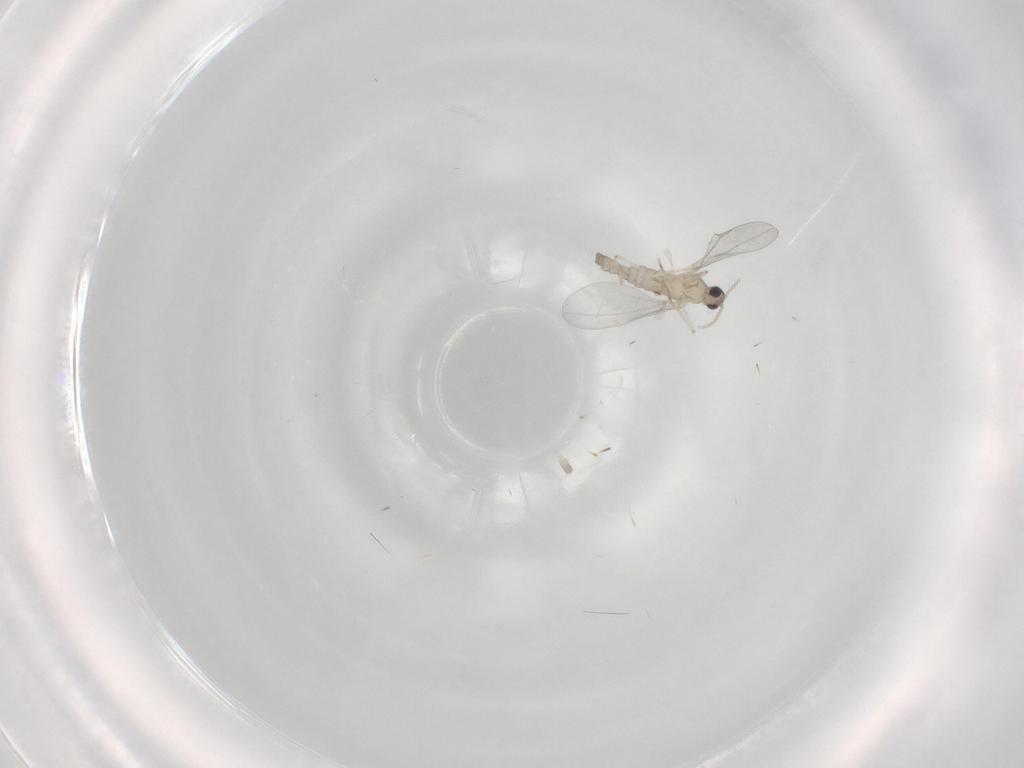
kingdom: Animalia
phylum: Arthropoda
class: Insecta
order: Diptera
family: Cecidomyiidae
